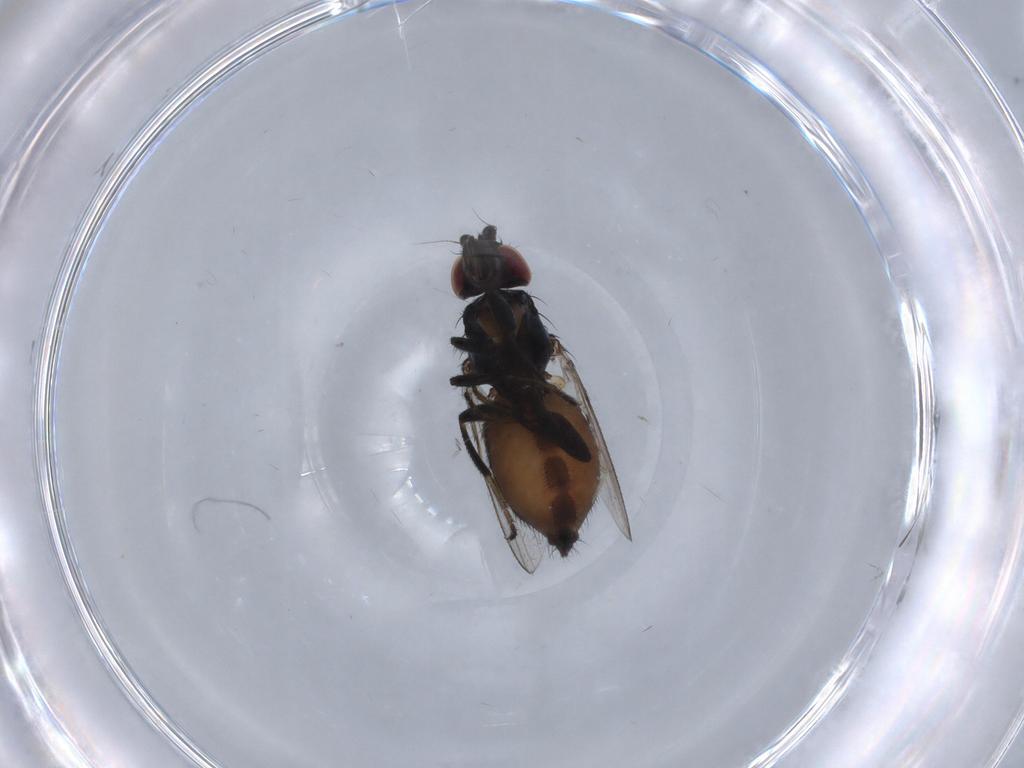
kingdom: Animalia
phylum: Arthropoda
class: Insecta
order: Diptera
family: Milichiidae
